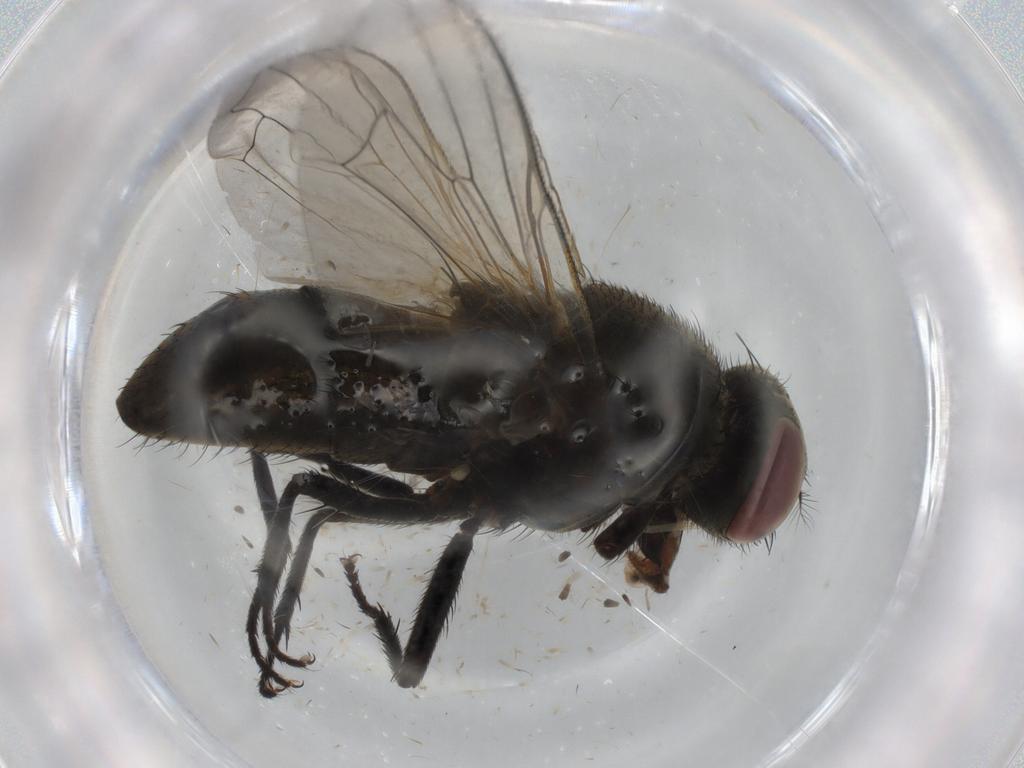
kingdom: Animalia
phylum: Arthropoda
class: Insecta
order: Diptera
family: Muscidae
